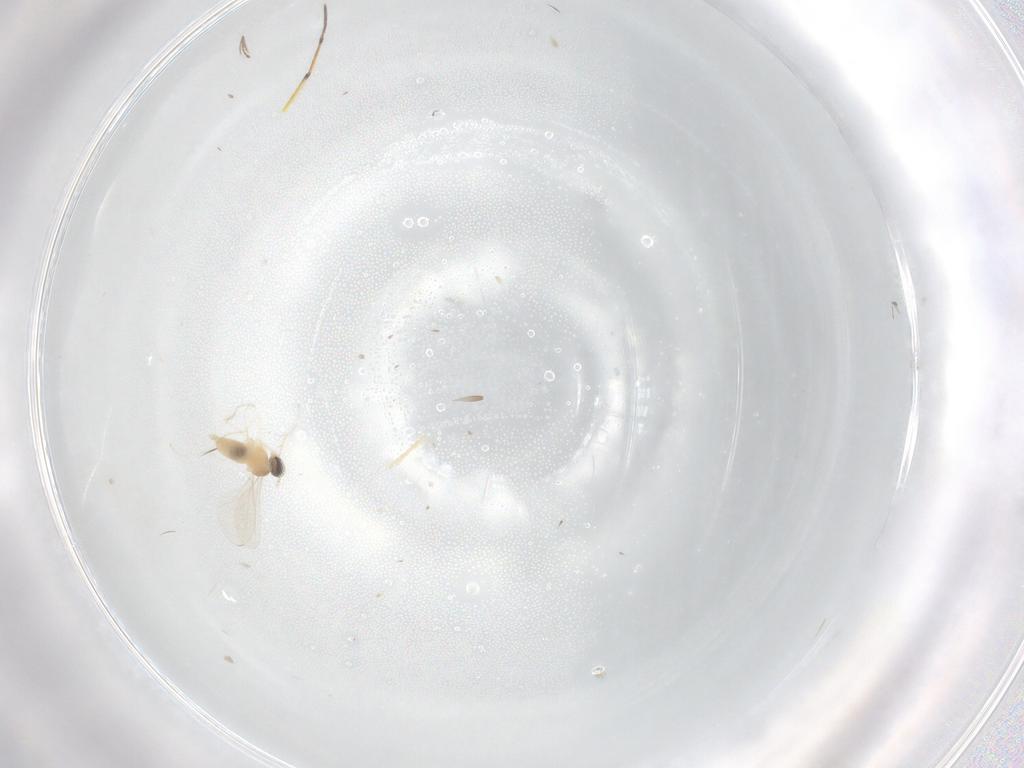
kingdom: Animalia
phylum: Arthropoda
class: Insecta
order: Diptera
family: Cecidomyiidae
